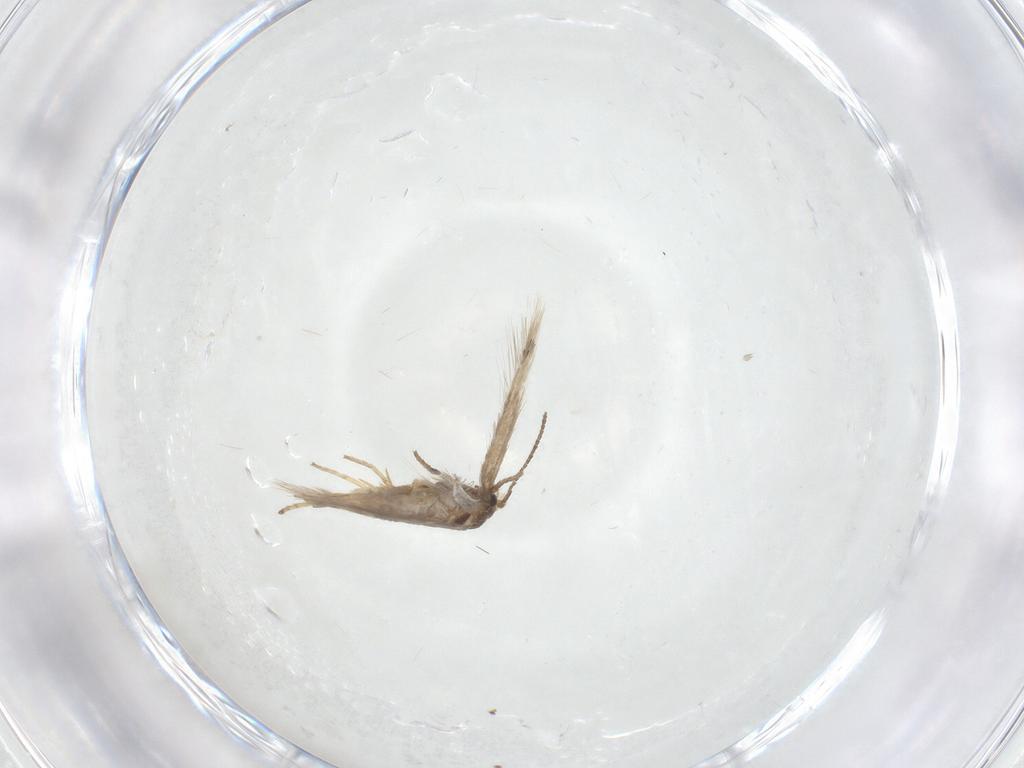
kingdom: Animalia
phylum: Arthropoda
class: Insecta
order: Lepidoptera
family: Nepticulidae
